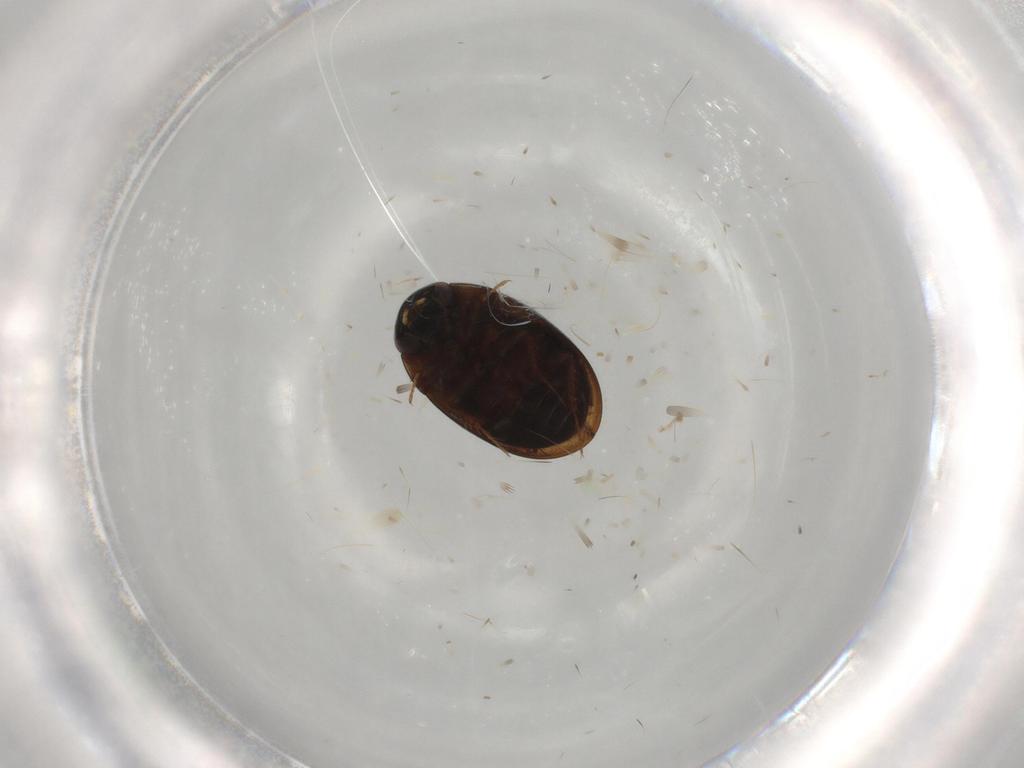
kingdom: Animalia
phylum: Arthropoda
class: Insecta
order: Coleoptera
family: Hydrophilidae
